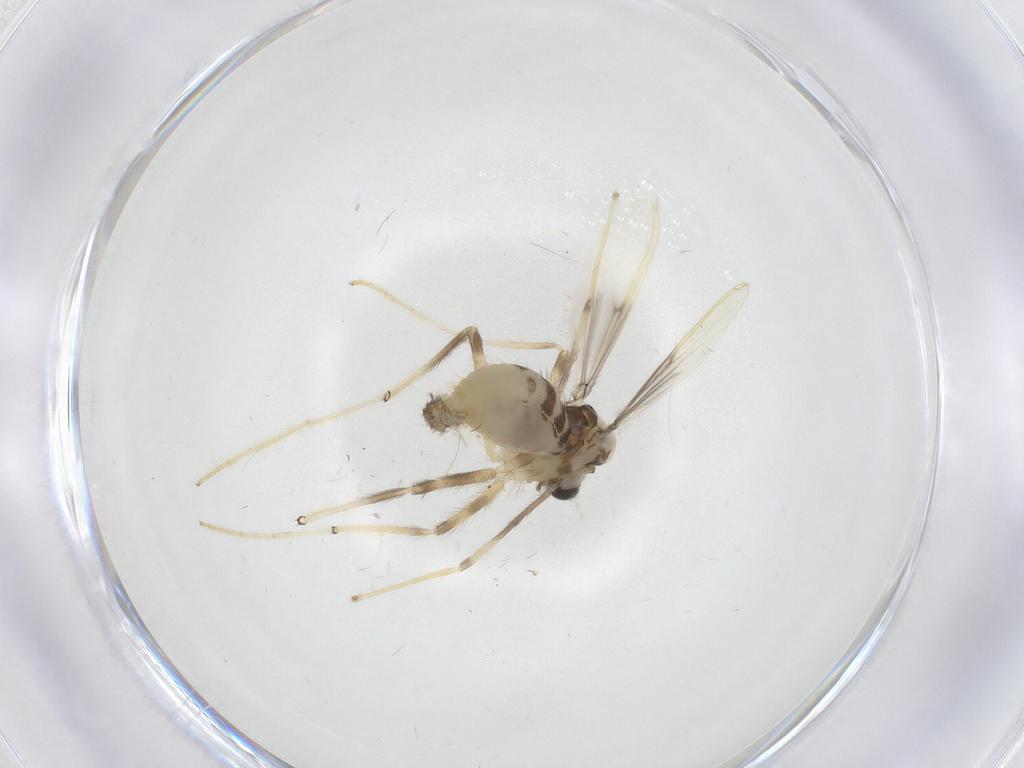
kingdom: Animalia
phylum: Arthropoda
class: Insecta
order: Diptera
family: Chironomidae
